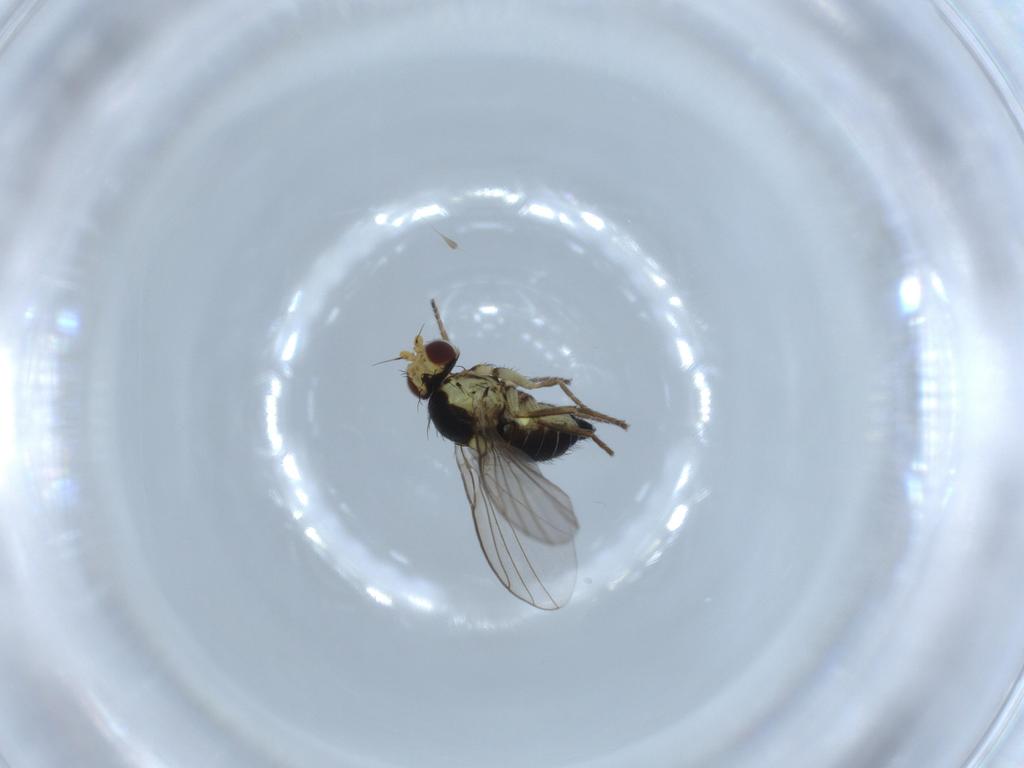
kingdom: Animalia
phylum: Arthropoda
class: Insecta
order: Diptera
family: Agromyzidae
